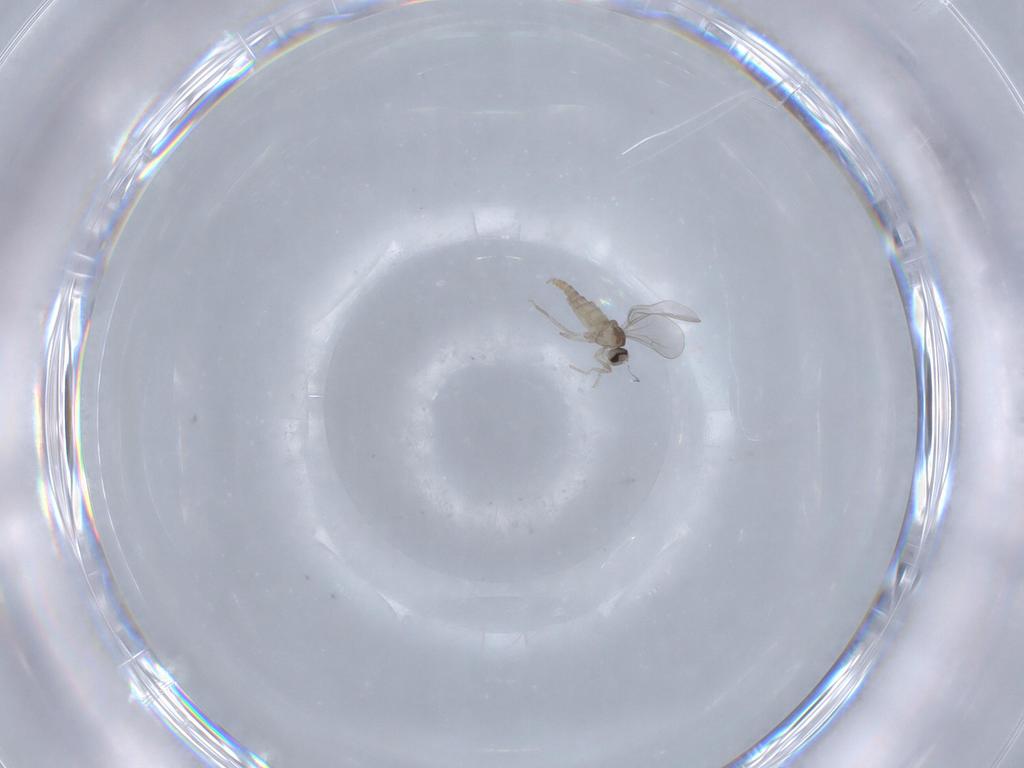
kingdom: Animalia
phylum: Arthropoda
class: Insecta
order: Diptera
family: Cecidomyiidae
